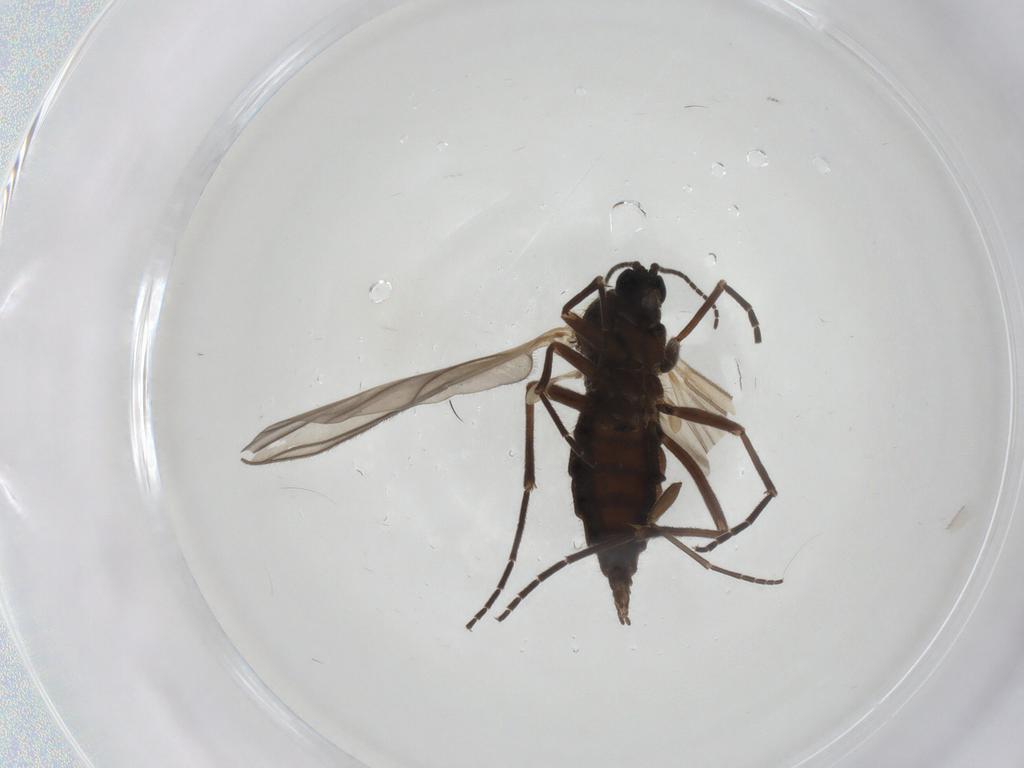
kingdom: Animalia
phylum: Arthropoda
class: Insecta
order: Diptera
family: Sciaridae
